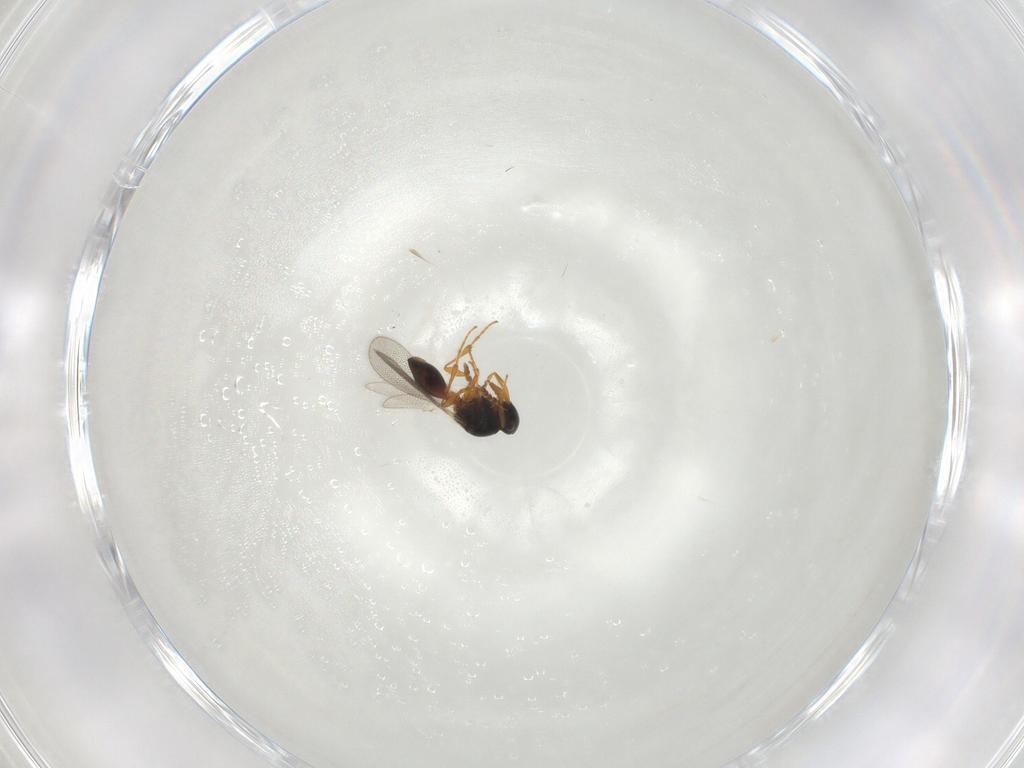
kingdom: Animalia
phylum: Arthropoda
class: Insecta
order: Hymenoptera
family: Platygastridae
